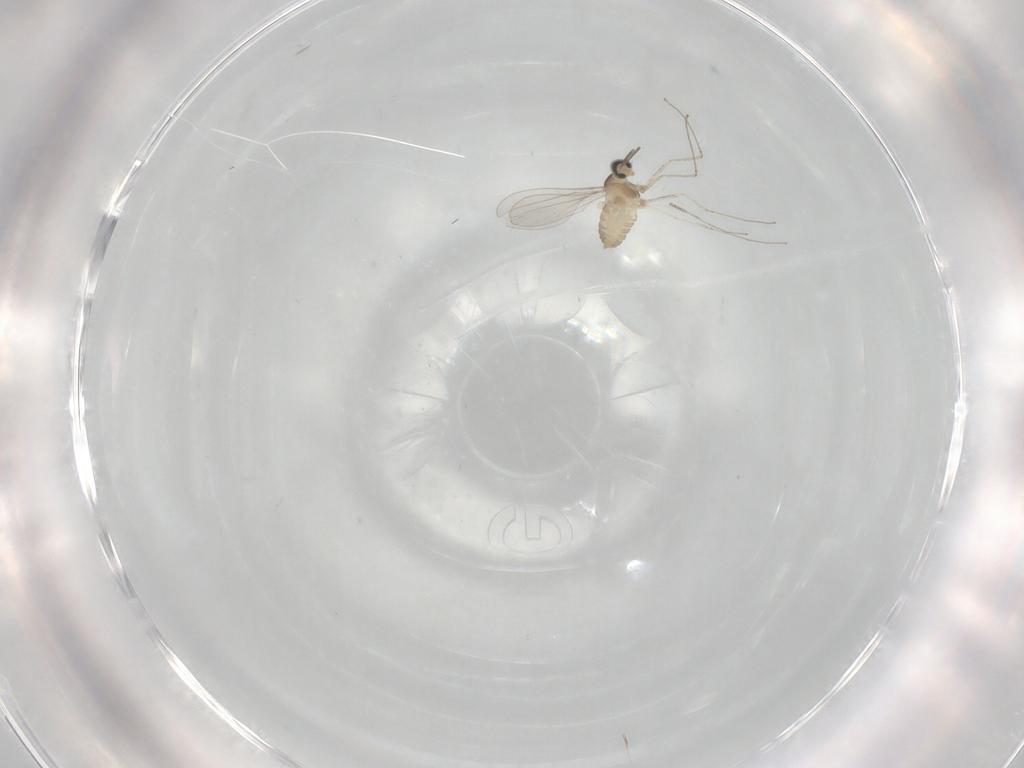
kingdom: Animalia
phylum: Arthropoda
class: Insecta
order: Diptera
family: Cecidomyiidae
